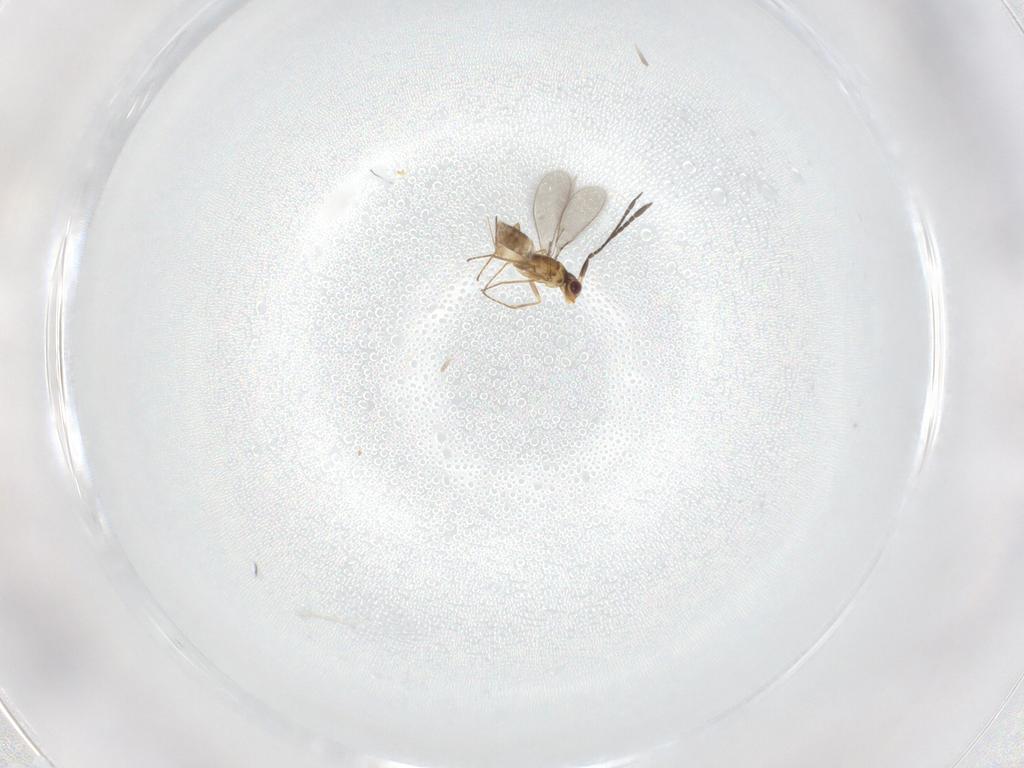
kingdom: Animalia
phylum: Arthropoda
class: Insecta
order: Hymenoptera
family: Mymaridae
